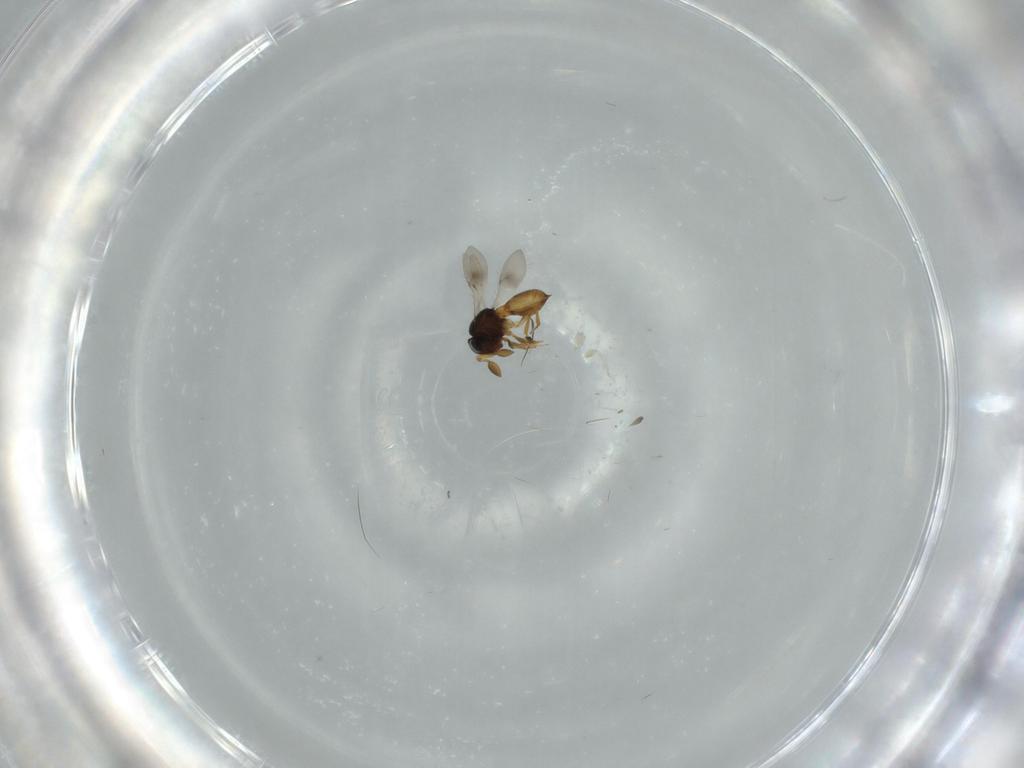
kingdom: Animalia
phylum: Arthropoda
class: Insecta
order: Hymenoptera
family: Scelionidae
